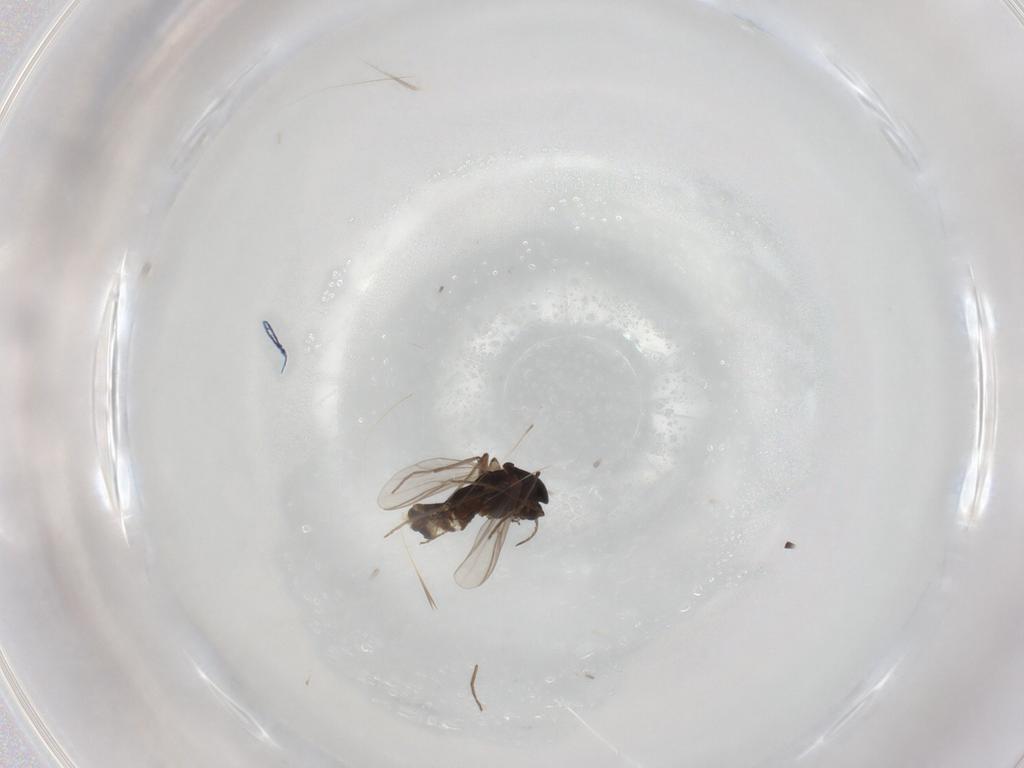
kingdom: Animalia
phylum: Arthropoda
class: Insecta
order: Diptera
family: Chironomidae
